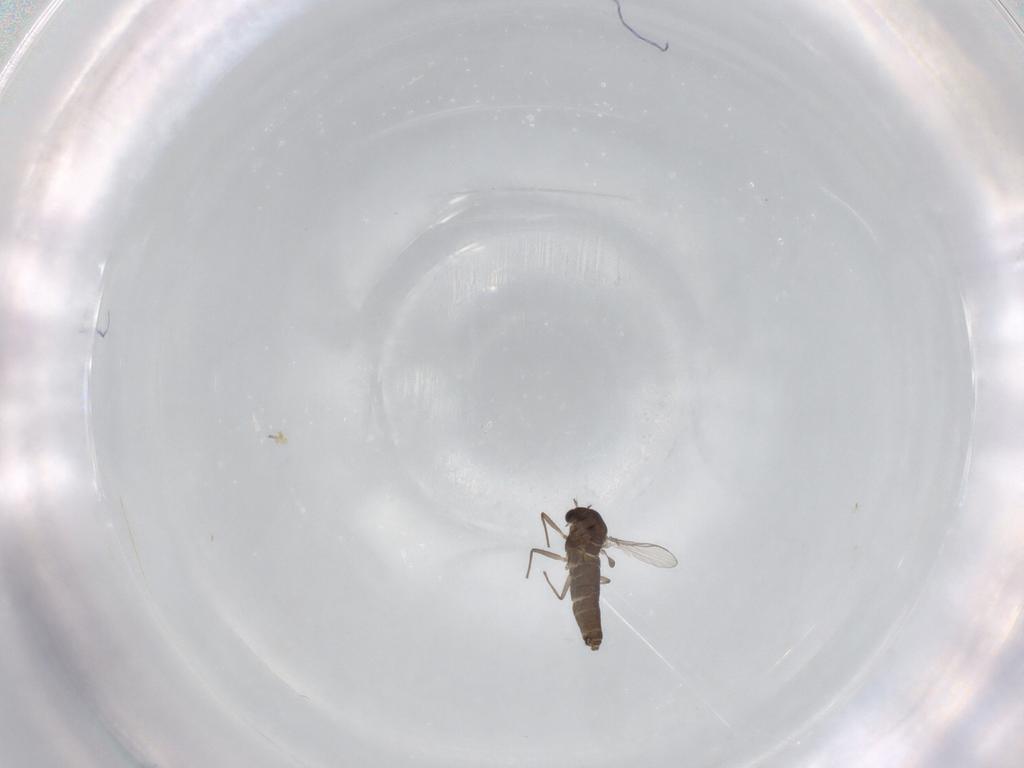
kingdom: Animalia
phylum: Arthropoda
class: Insecta
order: Diptera
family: Chironomidae
